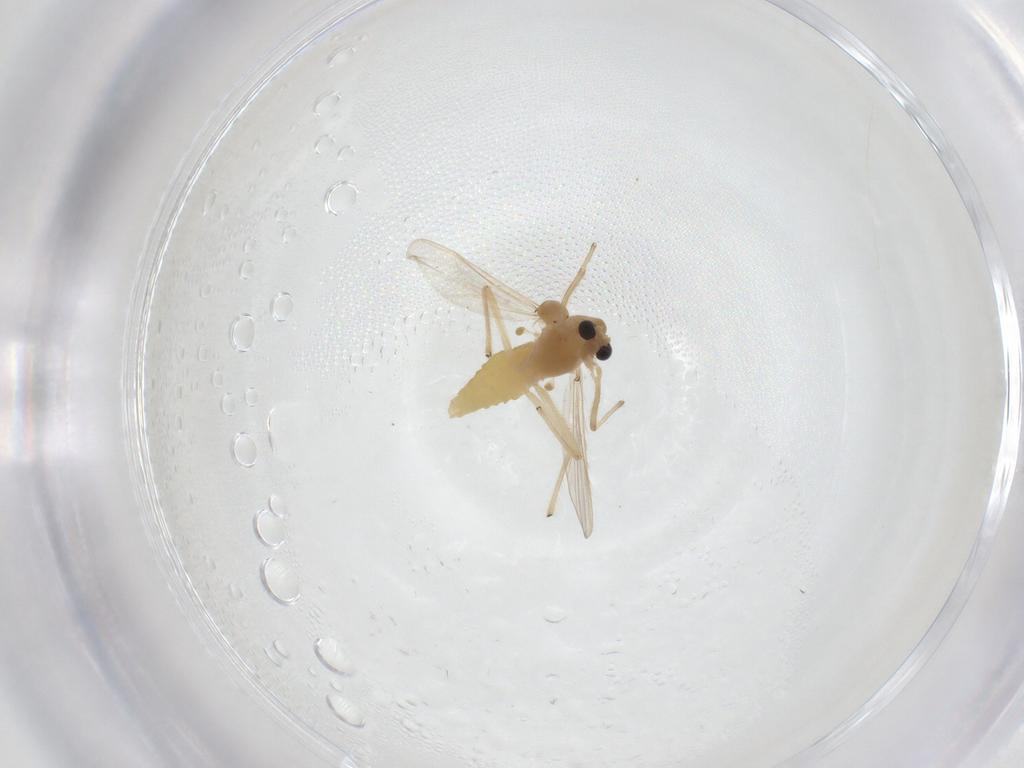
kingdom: Animalia
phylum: Arthropoda
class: Insecta
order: Diptera
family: Chironomidae
